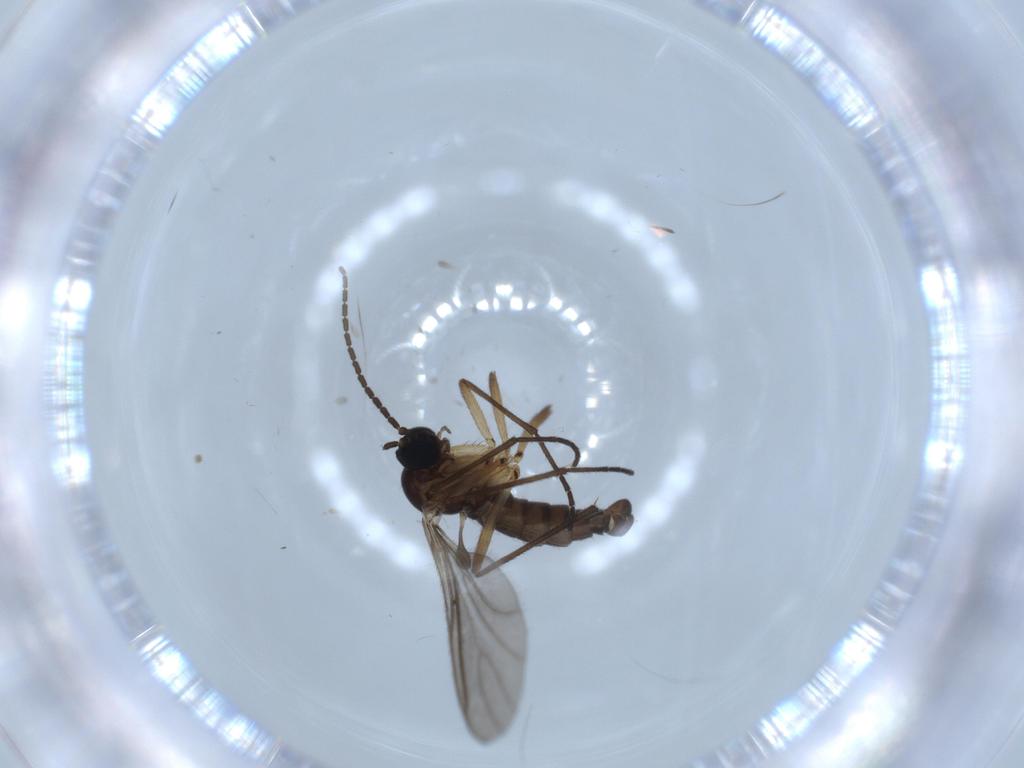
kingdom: Animalia
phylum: Arthropoda
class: Insecta
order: Diptera
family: Sciaridae
